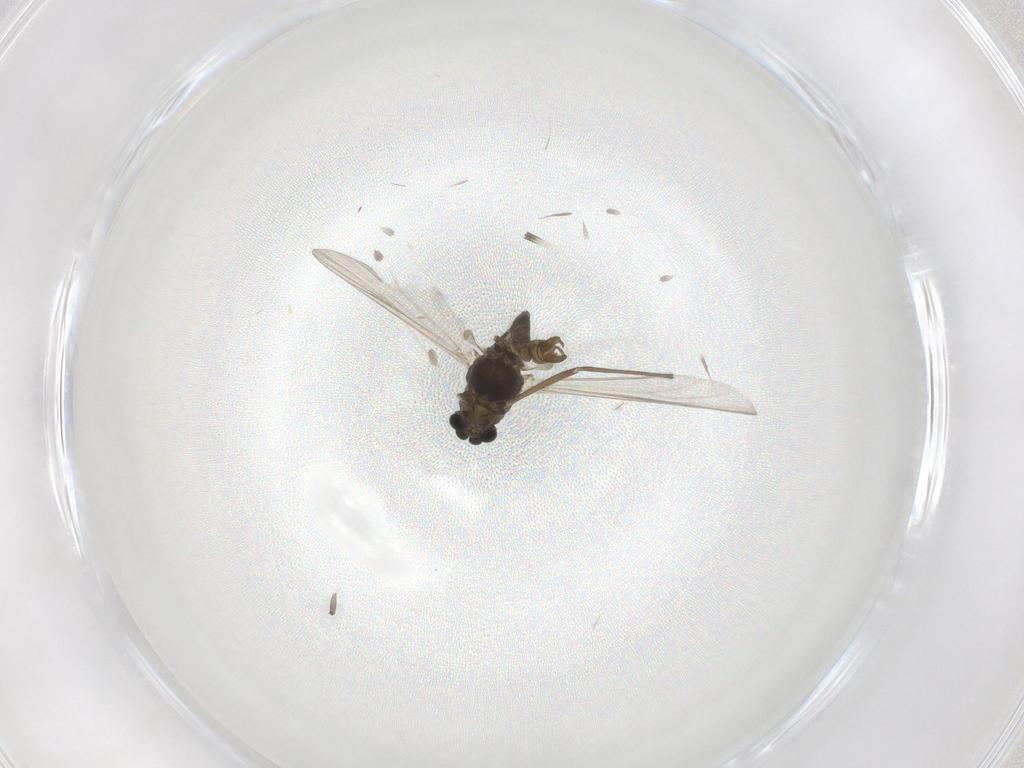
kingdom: Animalia
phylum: Arthropoda
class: Insecta
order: Diptera
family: Chironomidae
